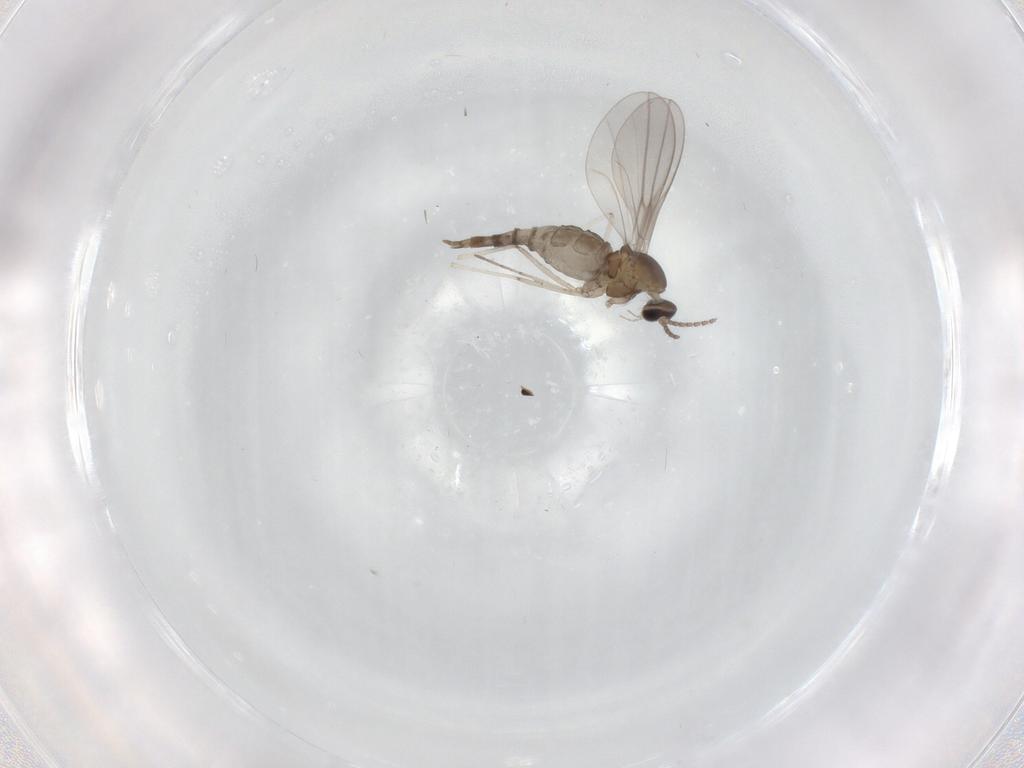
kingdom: Animalia
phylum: Arthropoda
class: Insecta
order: Diptera
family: Cecidomyiidae
